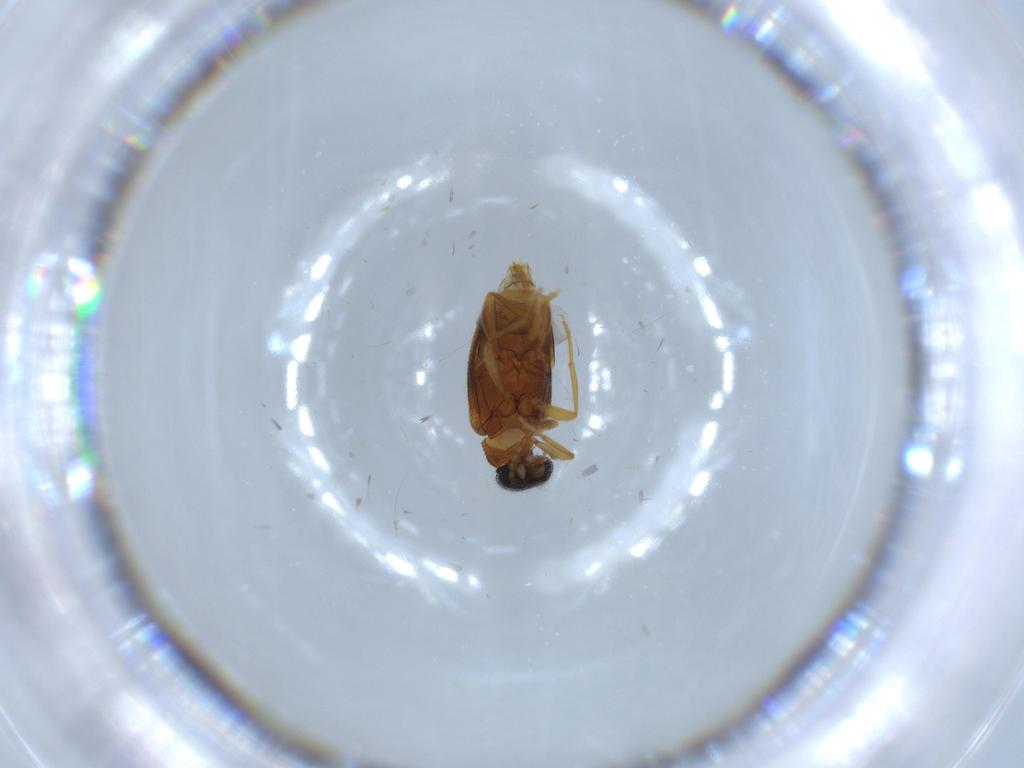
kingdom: Animalia
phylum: Arthropoda
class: Insecta
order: Coleoptera
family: Aderidae
